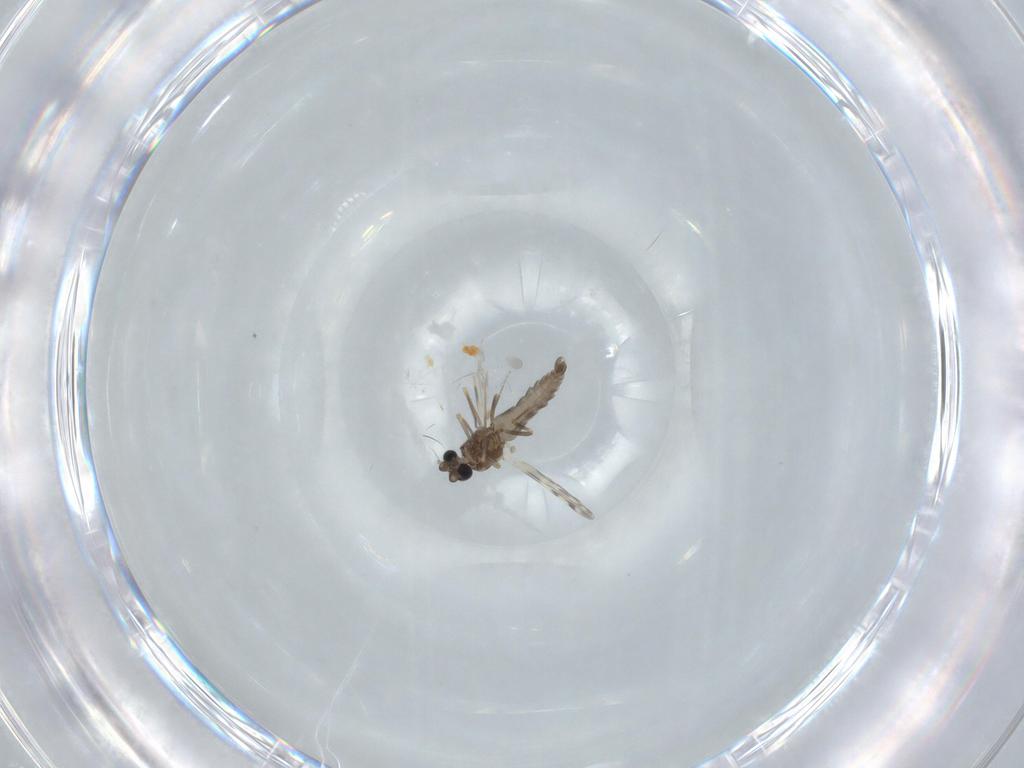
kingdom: Animalia
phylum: Arthropoda
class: Insecta
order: Diptera
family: Ceratopogonidae
